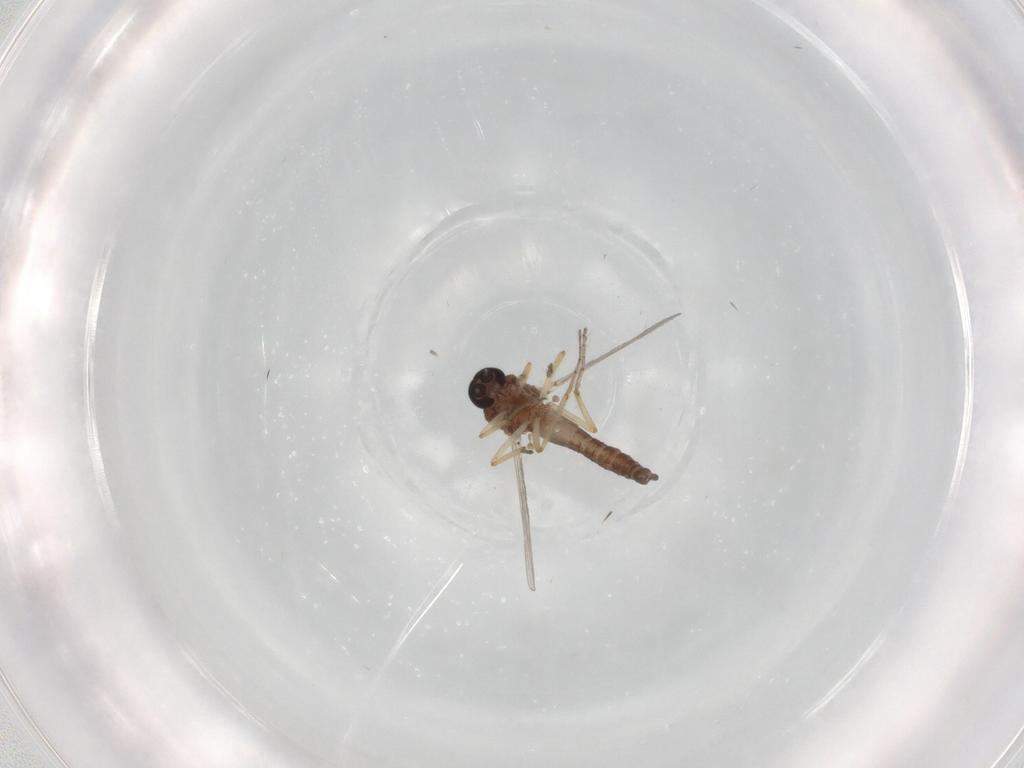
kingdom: Animalia
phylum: Arthropoda
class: Insecta
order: Diptera
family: Ceratopogonidae
